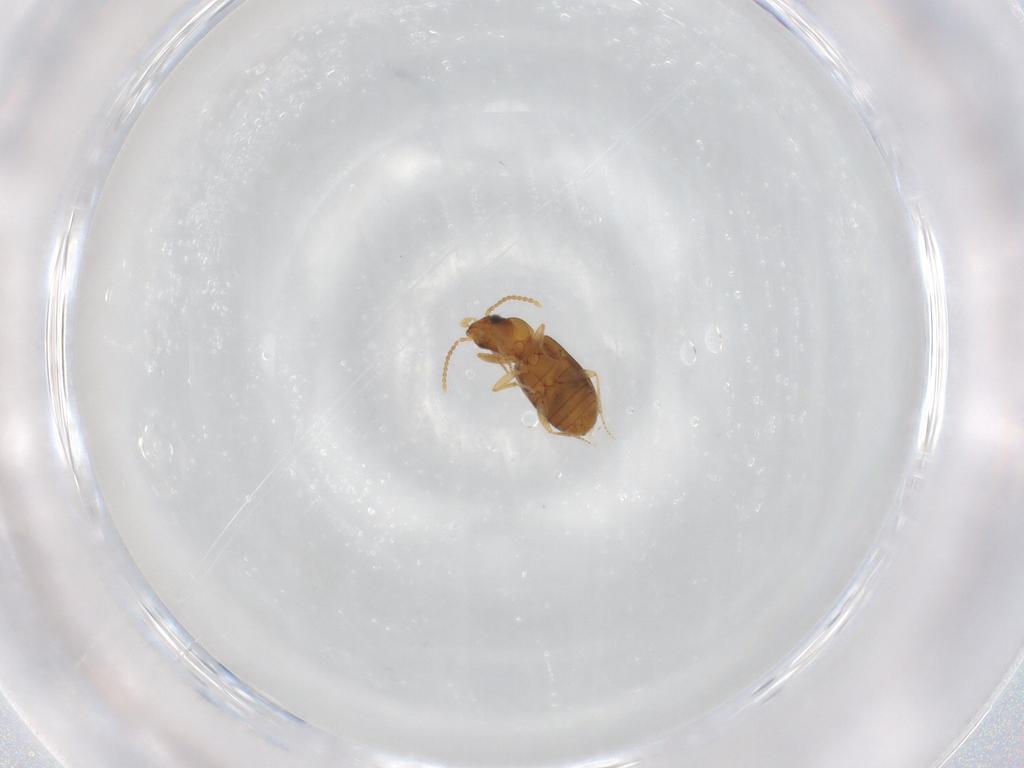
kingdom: Animalia
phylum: Arthropoda
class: Insecta
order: Coleoptera
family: Carabidae
